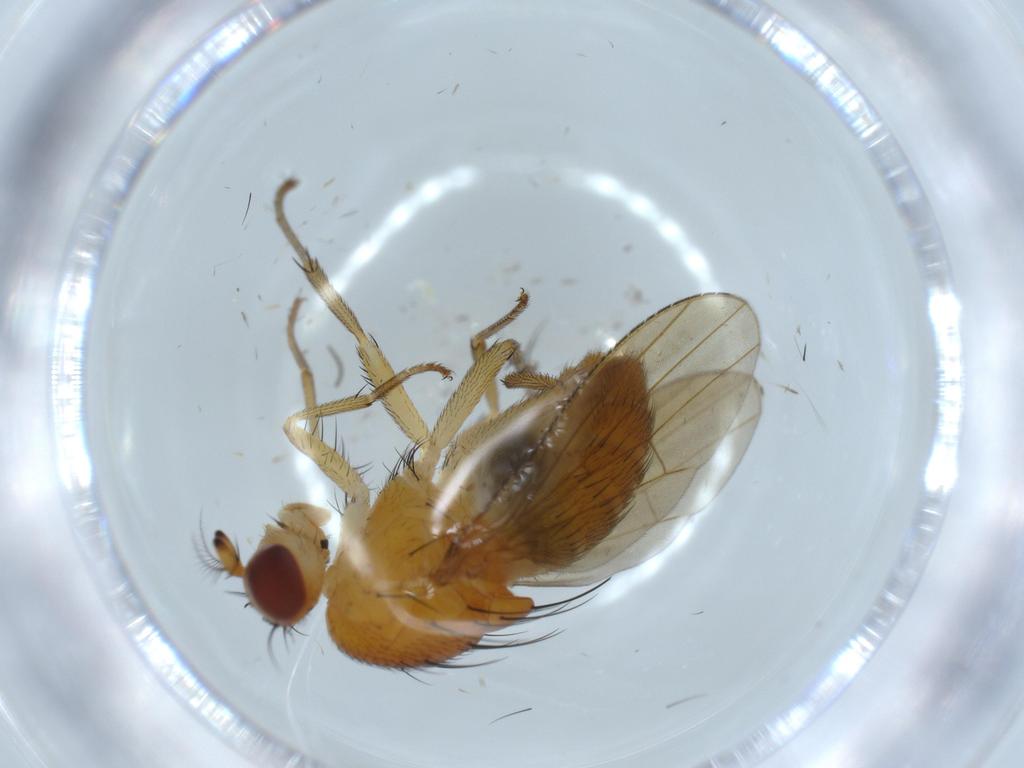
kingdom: Animalia
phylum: Arthropoda
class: Insecta
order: Diptera
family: Lauxaniidae
